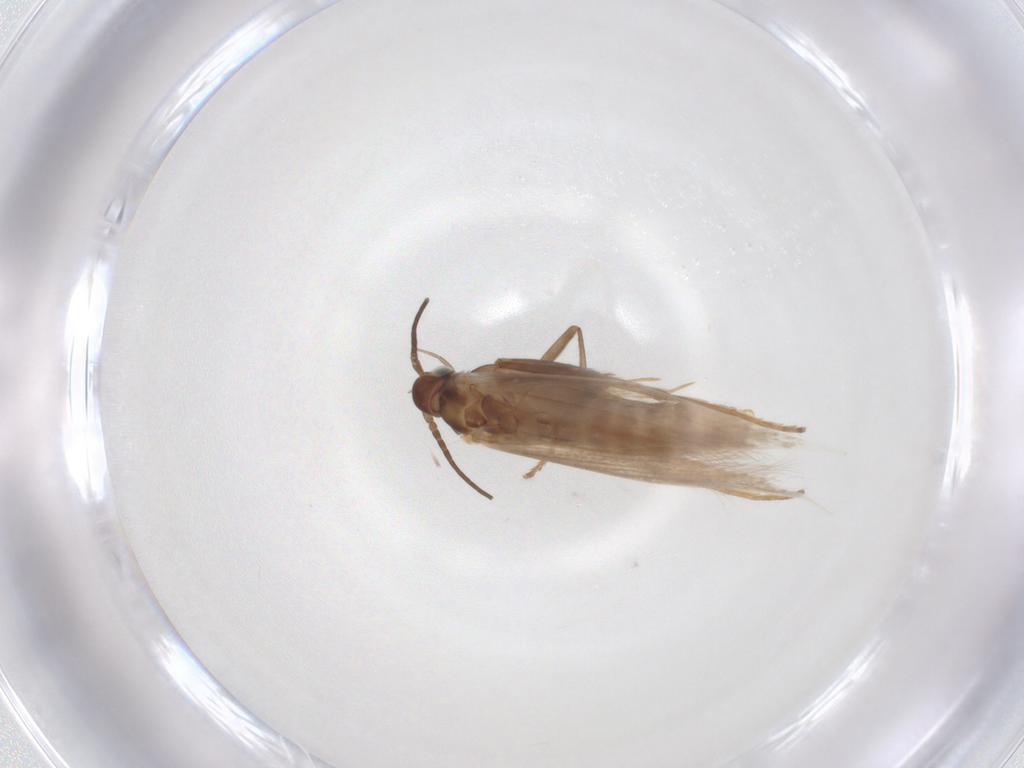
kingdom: Animalia
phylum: Arthropoda
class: Insecta
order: Lepidoptera
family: Coleophoridae
